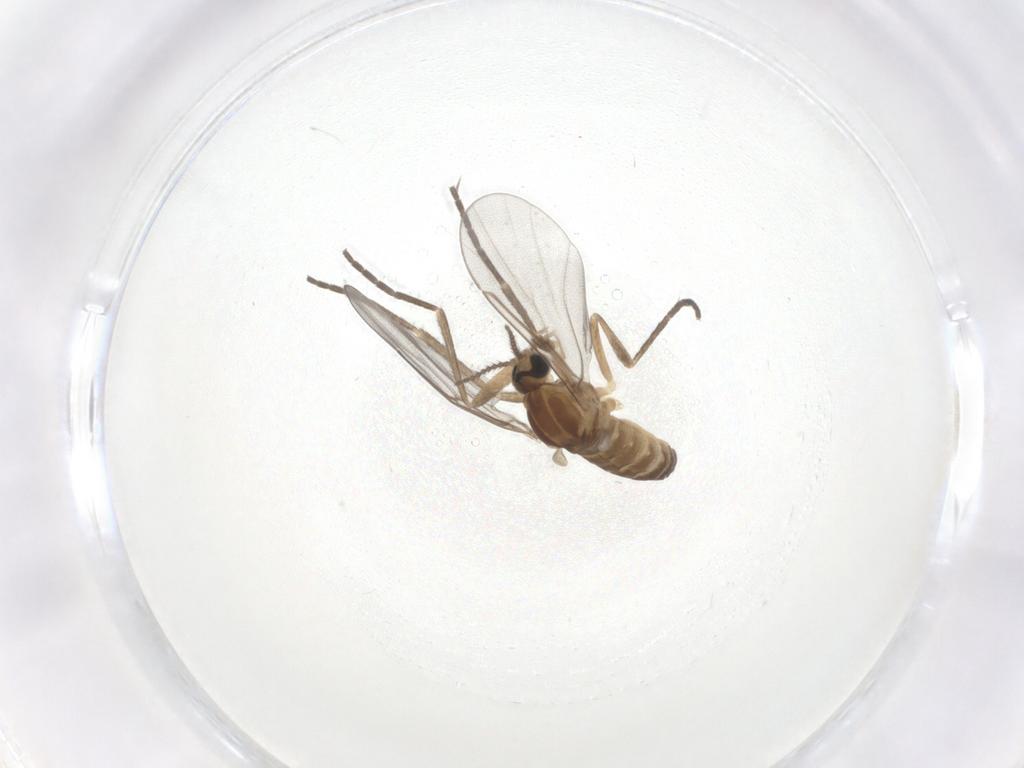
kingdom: Animalia
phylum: Arthropoda
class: Insecta
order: Diptera
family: Cecidomyiidae
